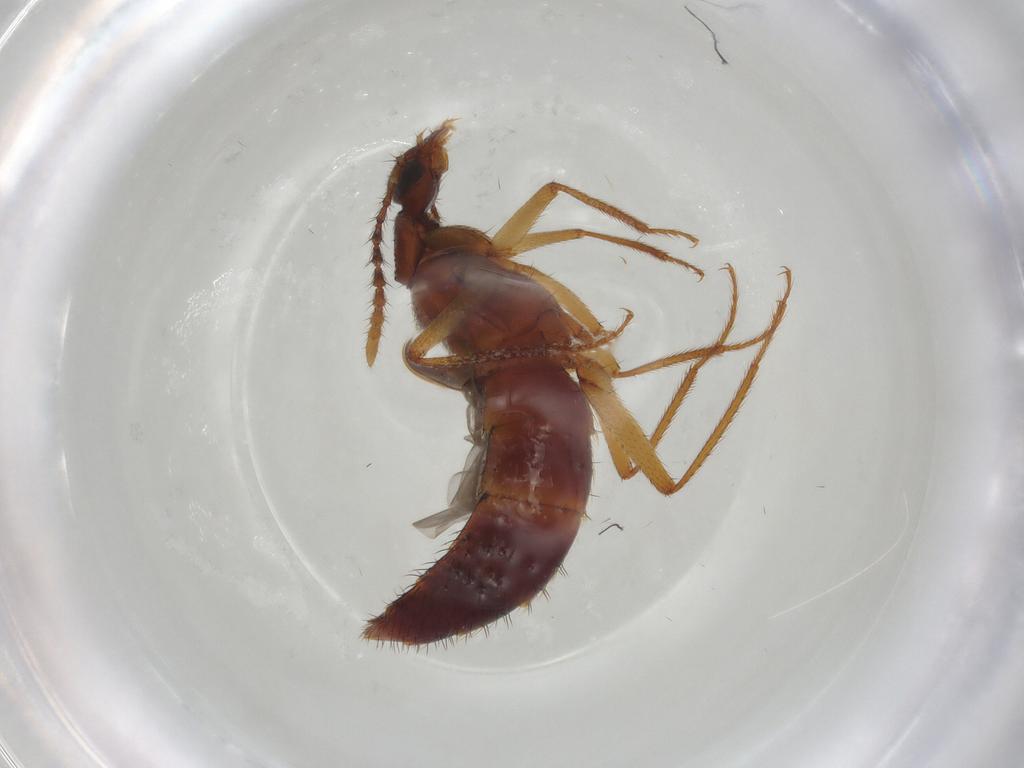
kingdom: Animalia
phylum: Arthropoda
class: Insecta
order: Coleoptera
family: Staphylinidae
